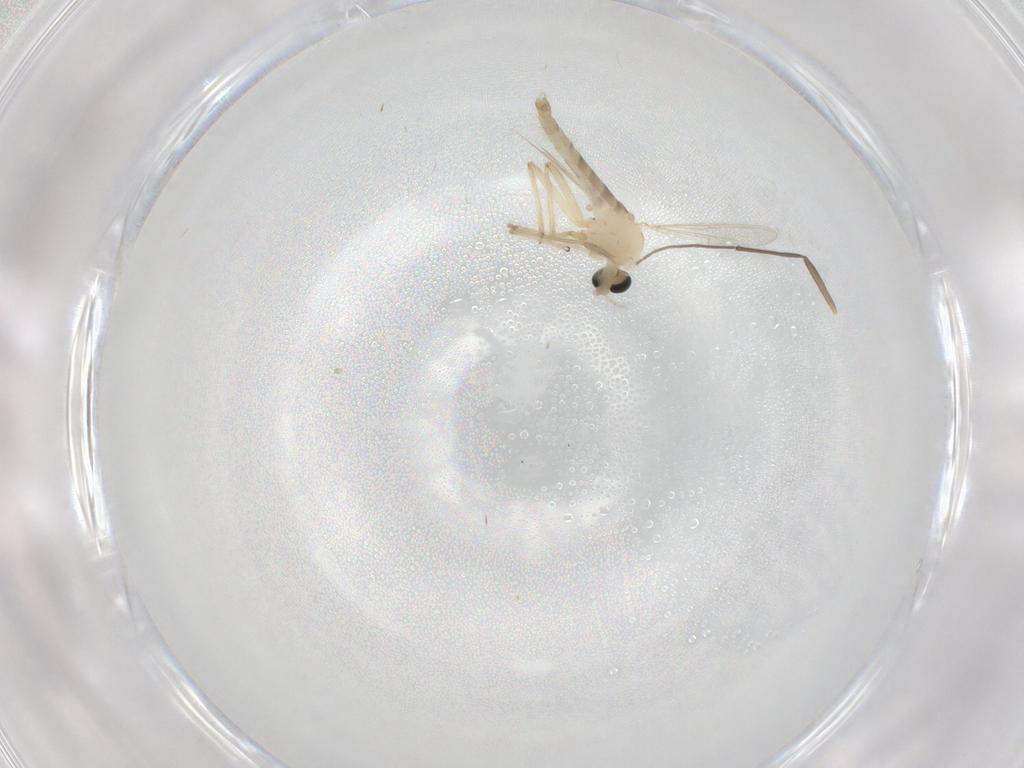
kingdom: Animalia
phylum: Arthropoda
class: Insecta
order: Diptera
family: Chironomidae
